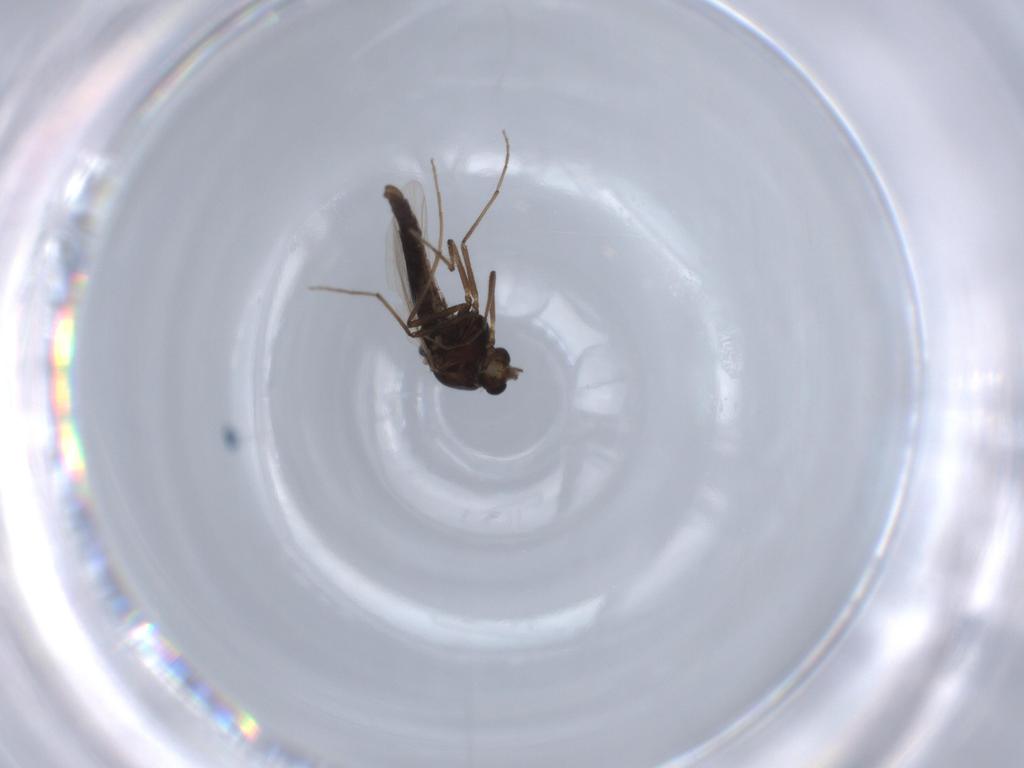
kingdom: Animalia
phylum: Arthropoda
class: Insecta
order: Diptera
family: Chironomidae
